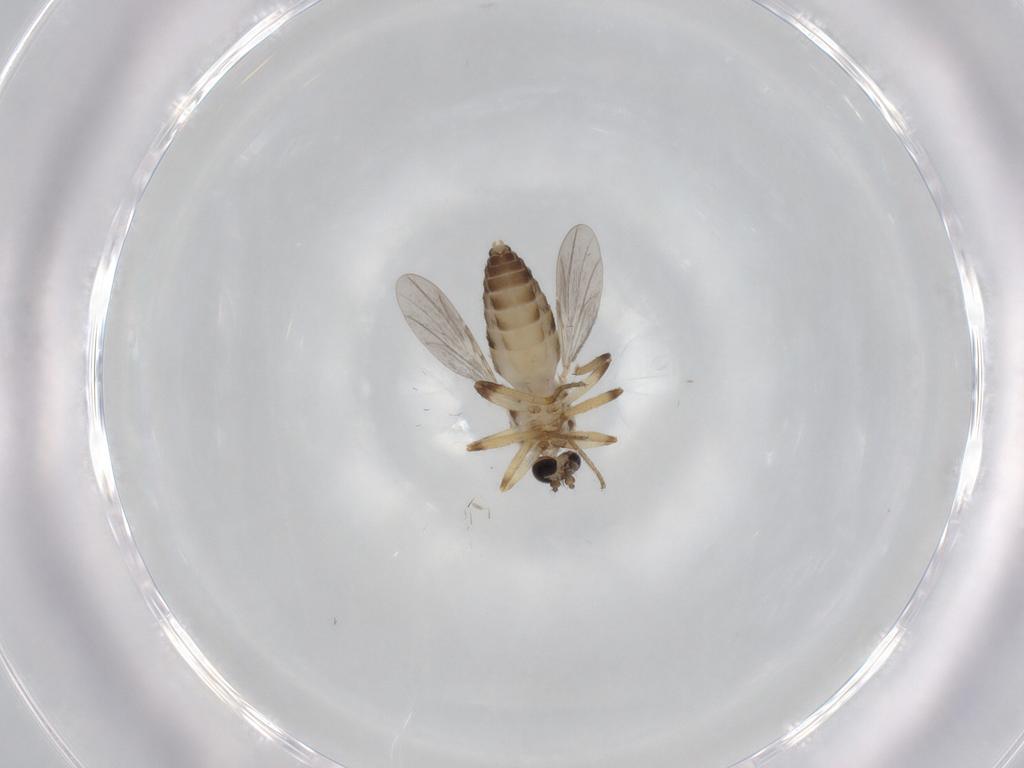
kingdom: Animalia
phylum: Arthropoda
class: Insecta
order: Diptera
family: Ceratopogonidae
